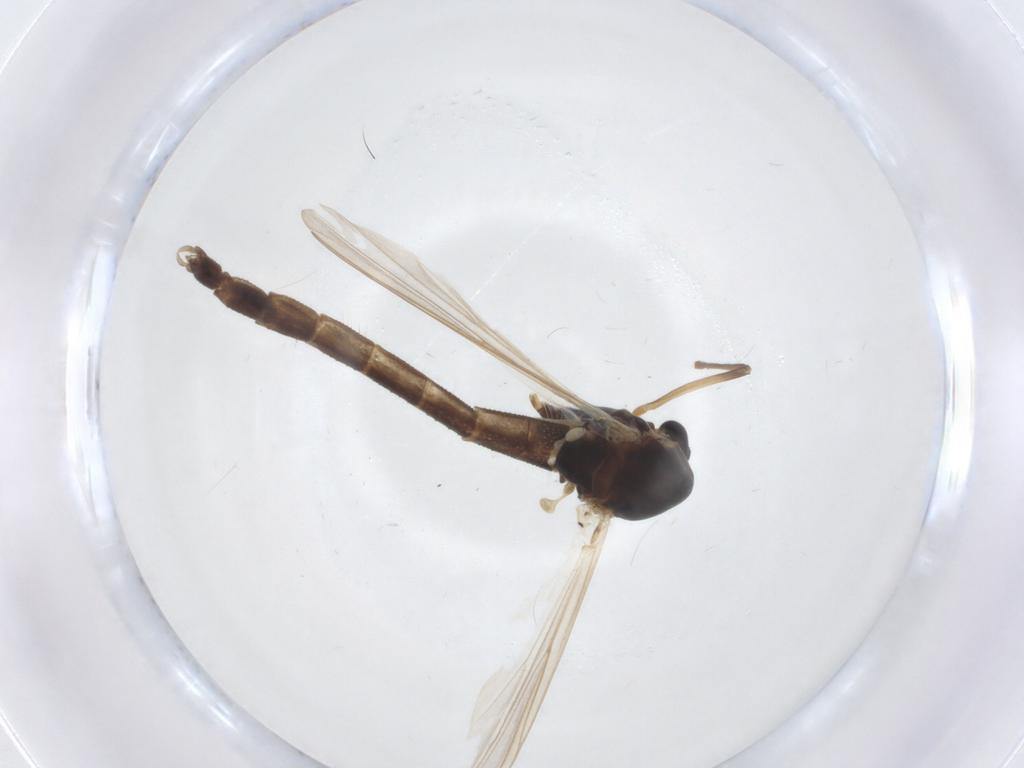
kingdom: Animalia
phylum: Arthropoda
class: Insecta
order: Diptera
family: Chironomidae
